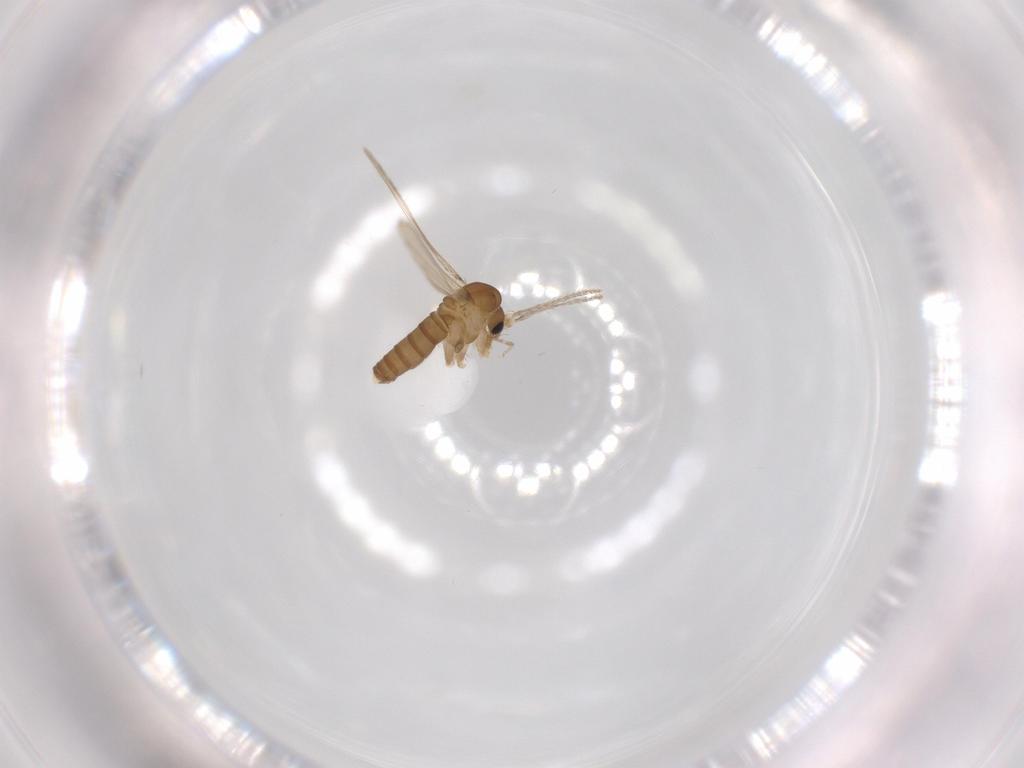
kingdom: Animalia
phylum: Arthropoda
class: Insecta
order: Diptera
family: Psychodidae
